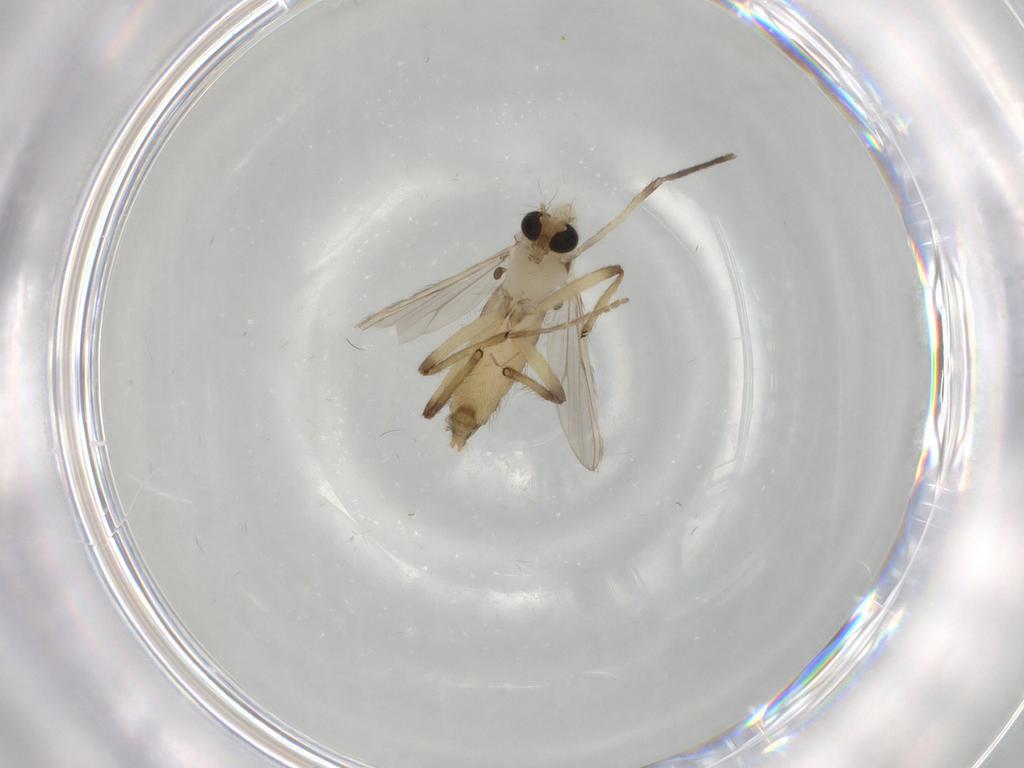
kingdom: Animalia
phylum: Arthropoda
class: Insecta
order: Diptera
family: Chironomidae
